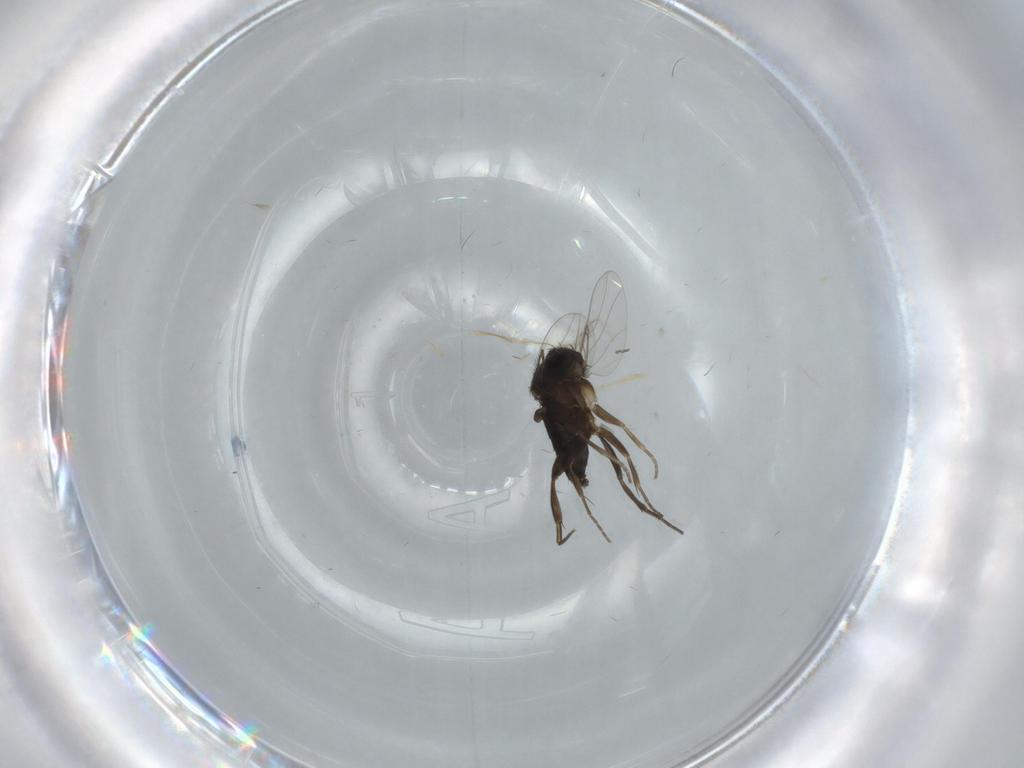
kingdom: Animalia
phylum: Arthropoda
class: Insecta
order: Diptera
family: Phoridae
